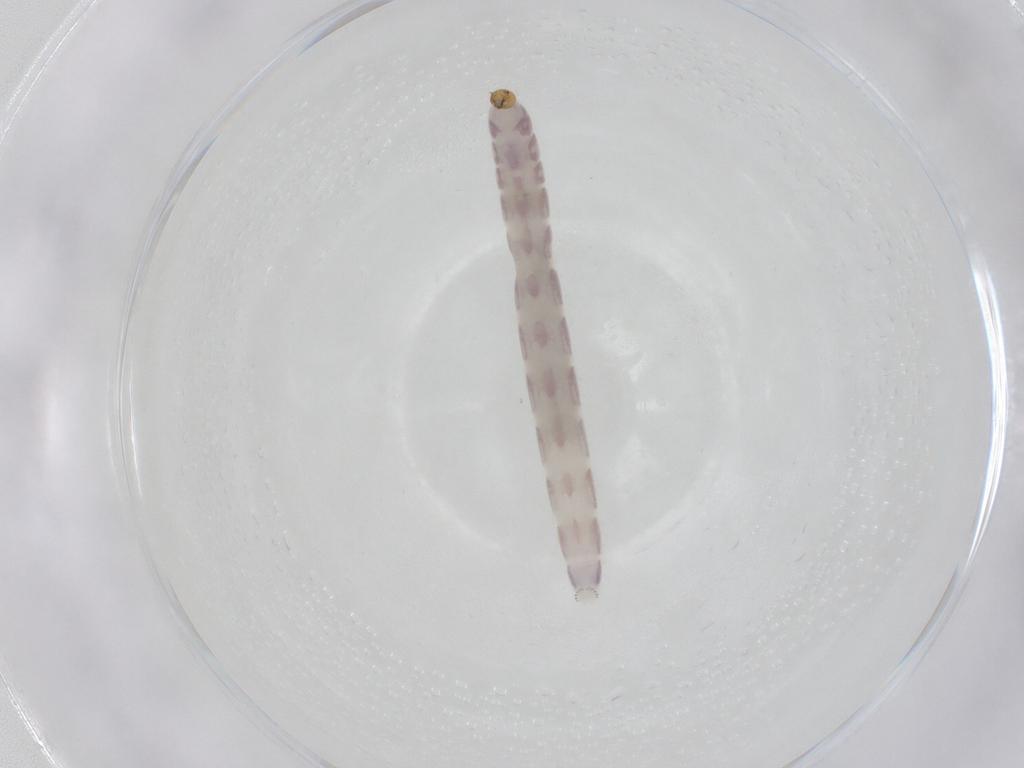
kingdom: Animalia
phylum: Arthropoda
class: Insecta
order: Diptera
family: Chironomidae
